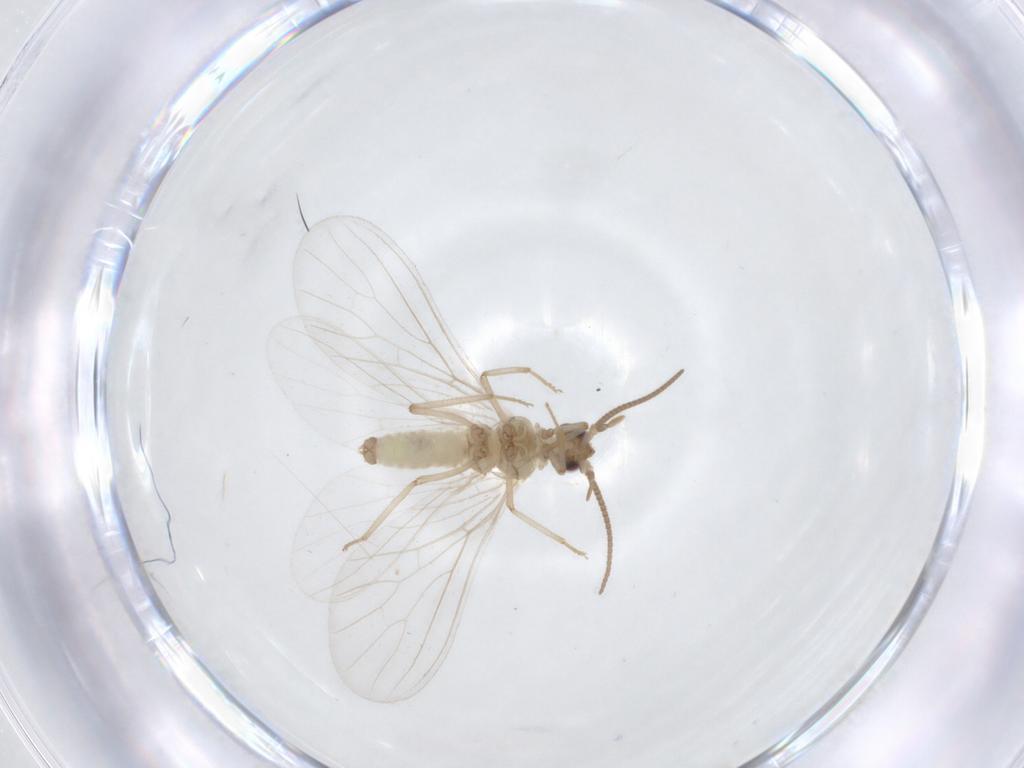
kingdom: Animalia
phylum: Arthropoda
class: Insecta
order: Neuroptera
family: Coniopterygidae
